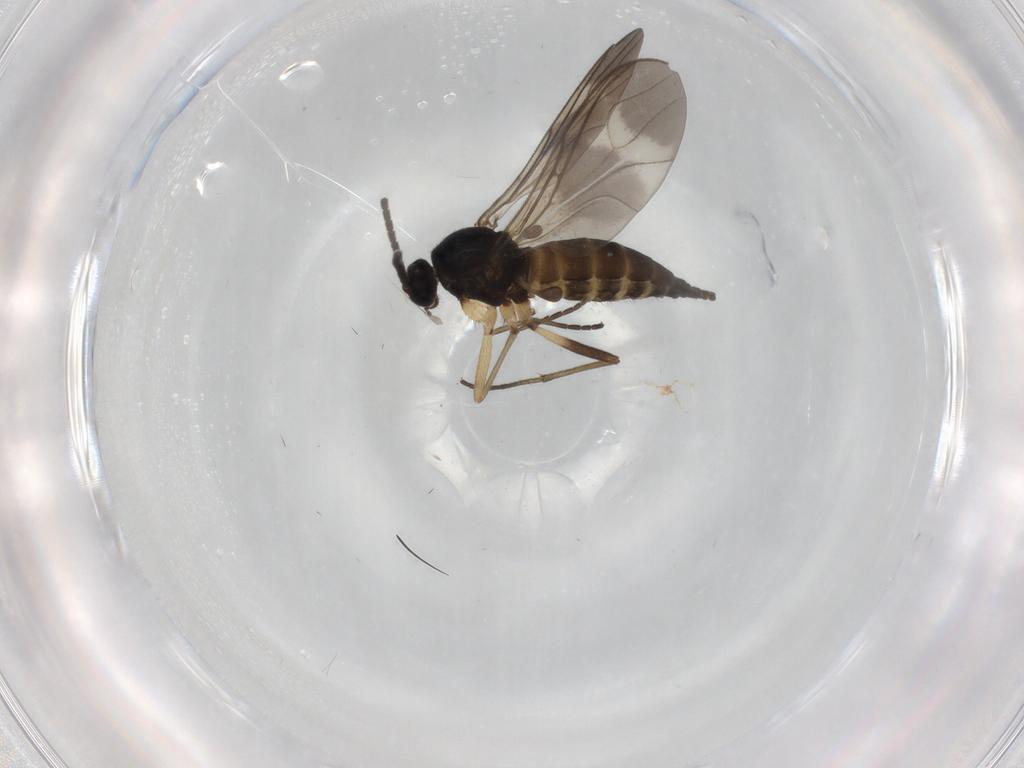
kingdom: Animalia
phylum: Arthropoda
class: Insecta
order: Diptera
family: Sciaridae
